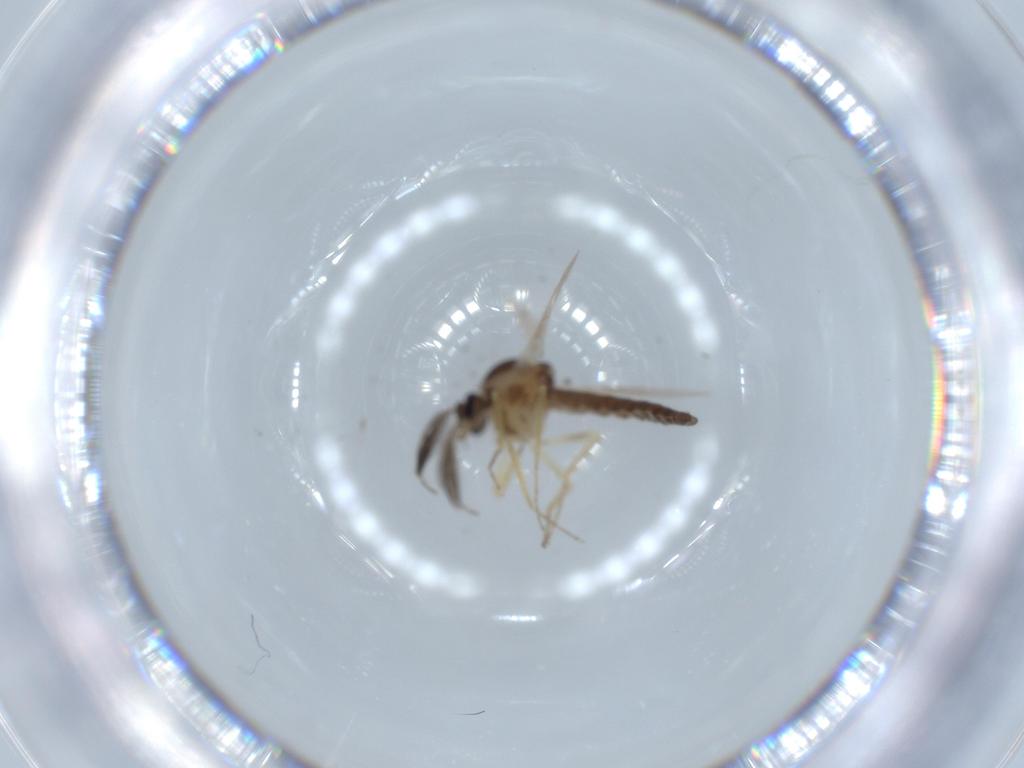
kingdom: Animalia
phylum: Arthropoda
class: Insecta
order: Diptera
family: Ceratopogonidae
